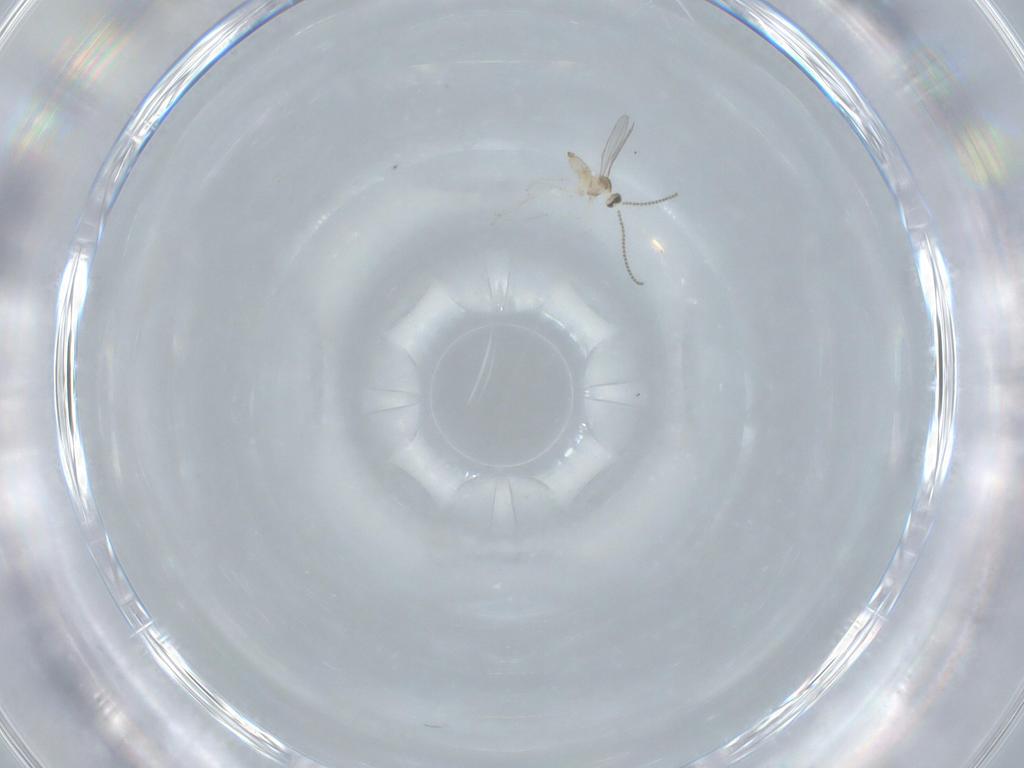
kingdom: Animalia
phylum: Arthropoda
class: Insecta
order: Diptera
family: Cecidomyiidae
